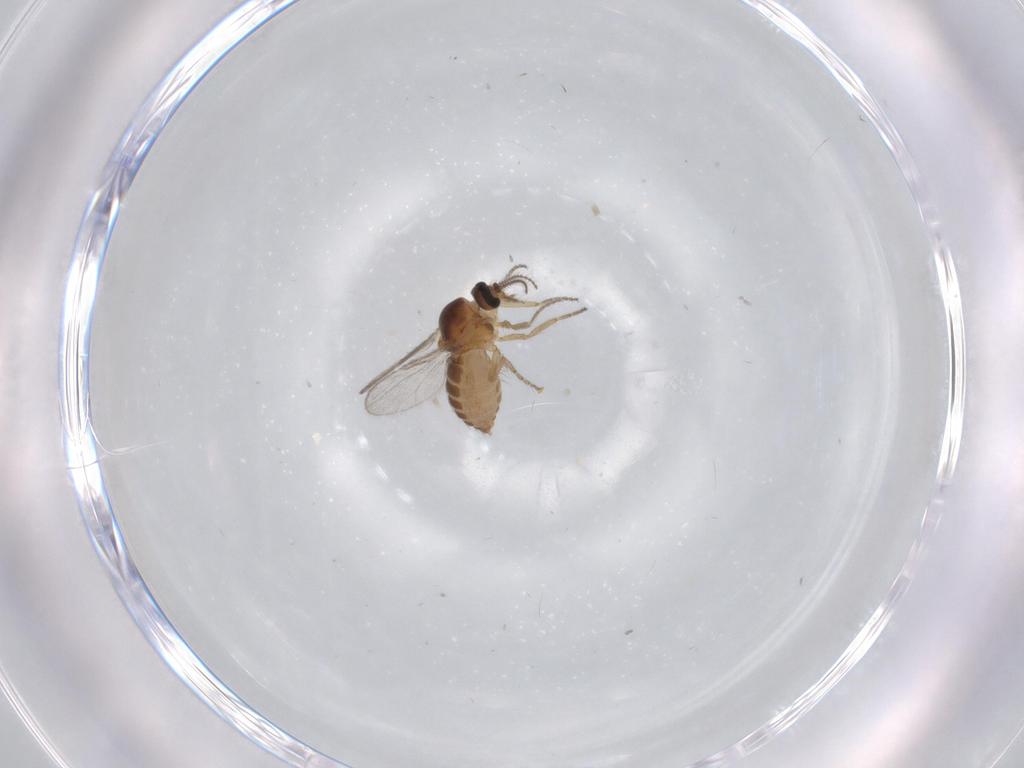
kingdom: Animalia
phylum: Arthropoda
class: Insecta
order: Diptera
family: Ceratopogonidae
